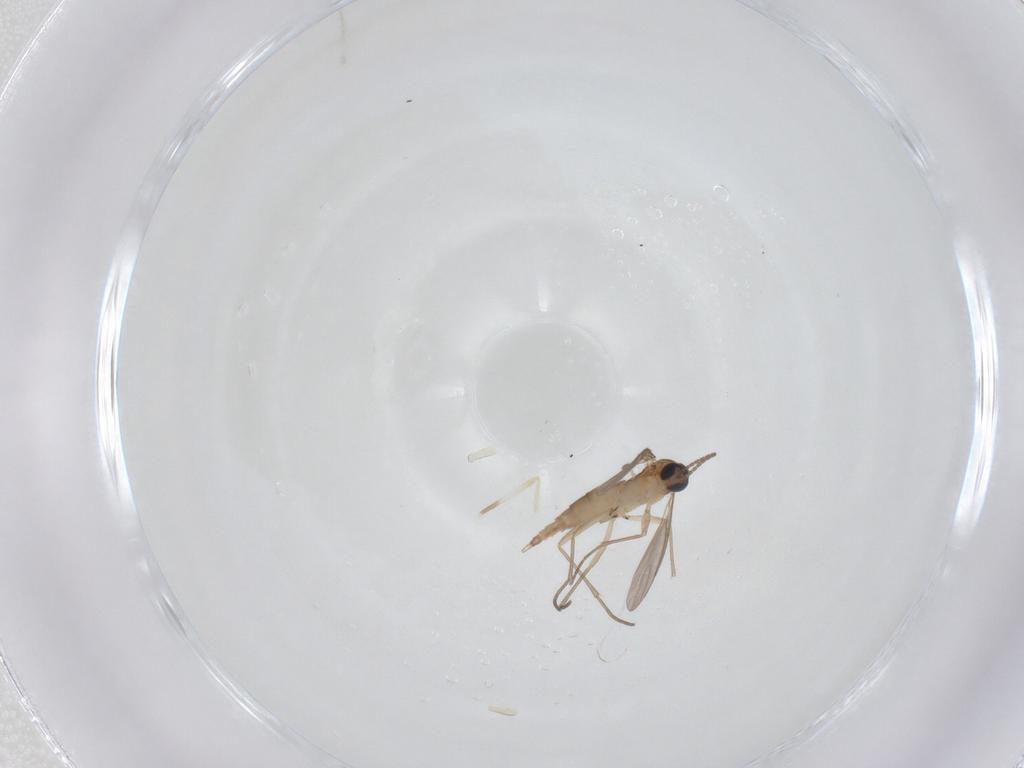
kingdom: Animalia
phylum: Arthropoda
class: Insecta
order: Diptera
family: Sciaridae
